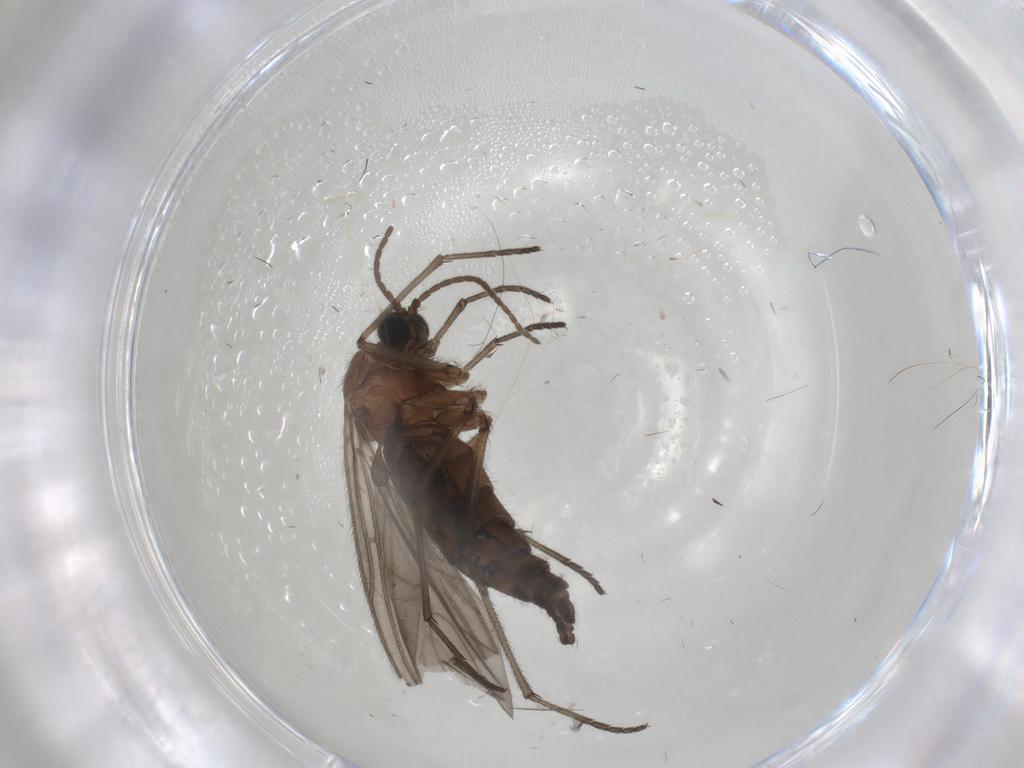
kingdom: Animalia
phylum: Arthropoda
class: Insecta
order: Diptera
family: Sciaridae
